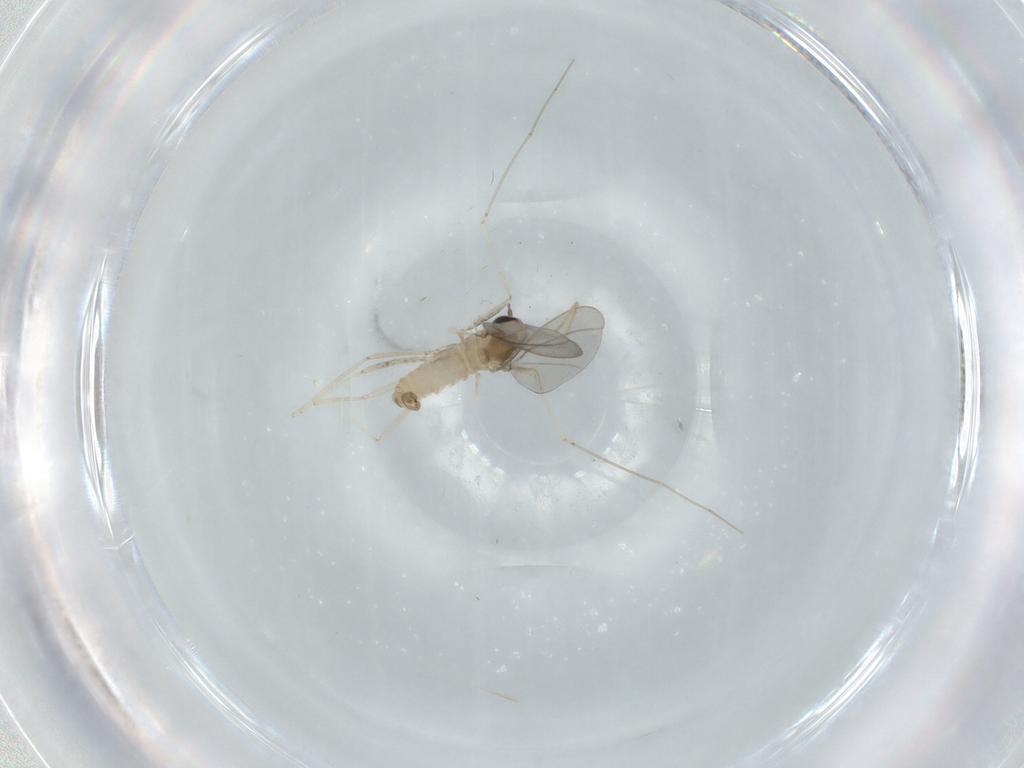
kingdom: Animalia
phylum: Arthropoda
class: Insecta
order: Diptera
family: Cecidomyiidae
